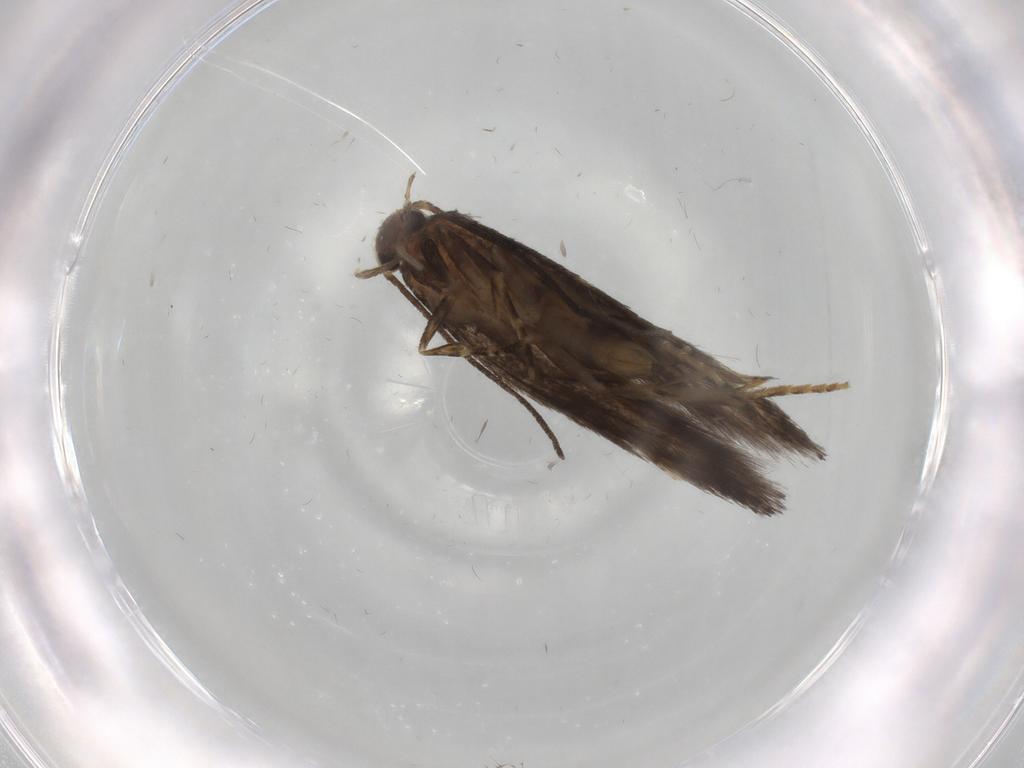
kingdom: Animalia
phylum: Arthropoda
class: Insecta
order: Lepidoptera
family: Elachistidae
